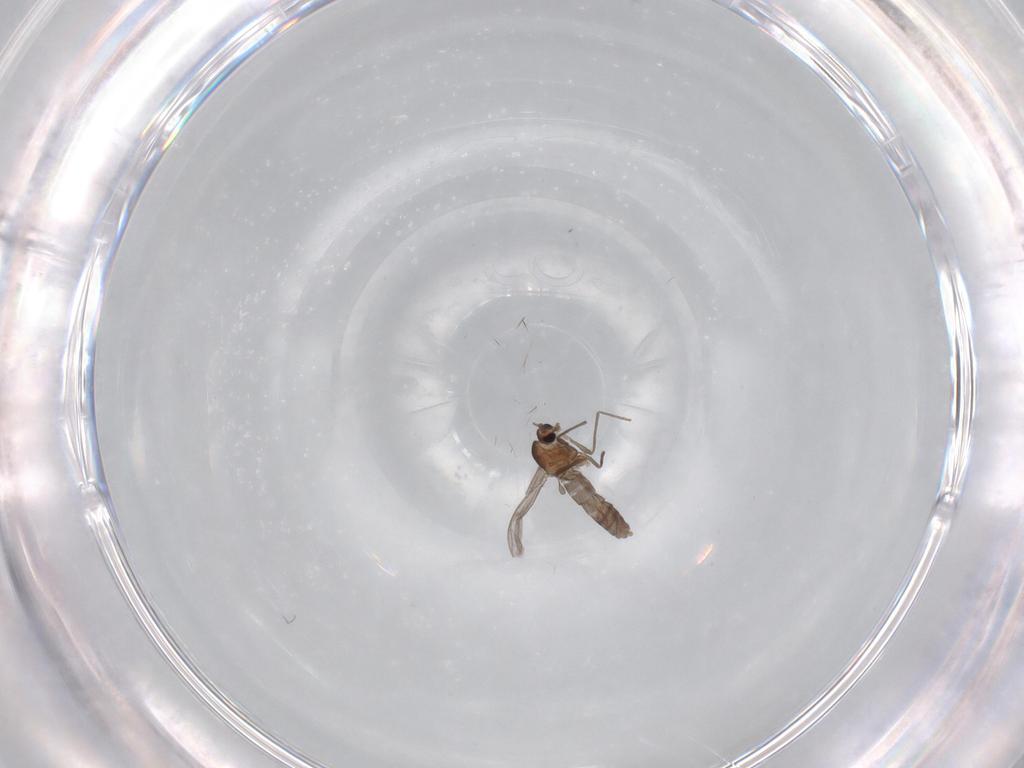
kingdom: Animalia
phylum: Arthropoda
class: Insecta
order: Diptera
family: Chironomidae
